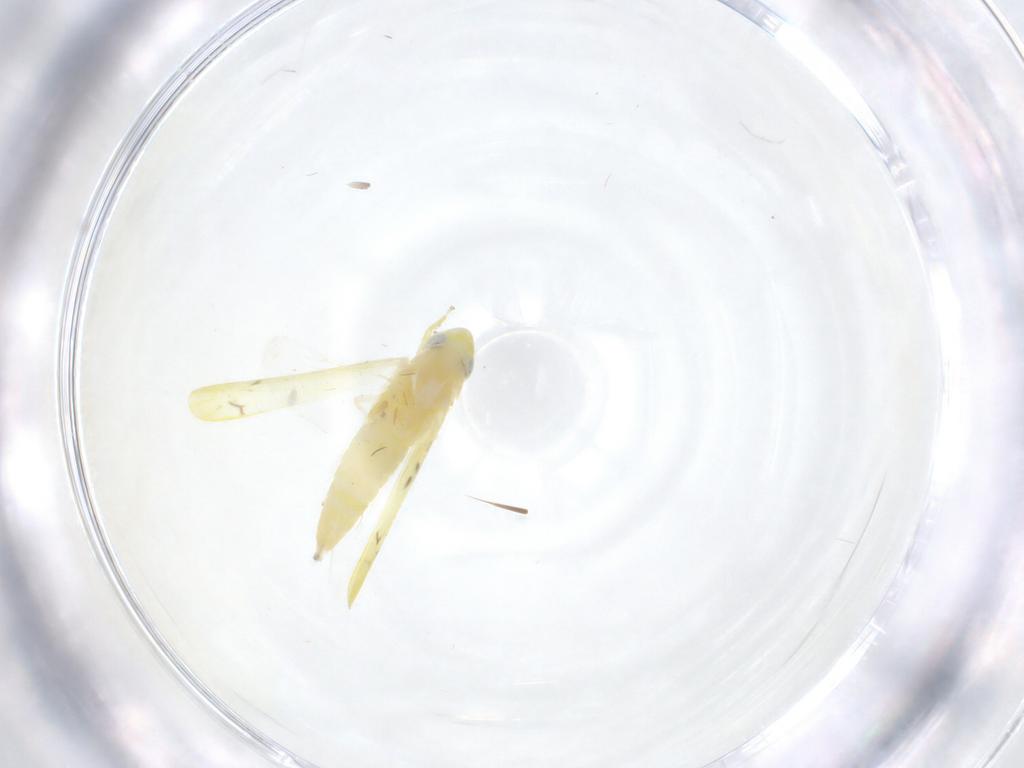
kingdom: Animalia
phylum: Arthropoda
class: Insecta
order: Hemiptera
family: Cicadellidae
